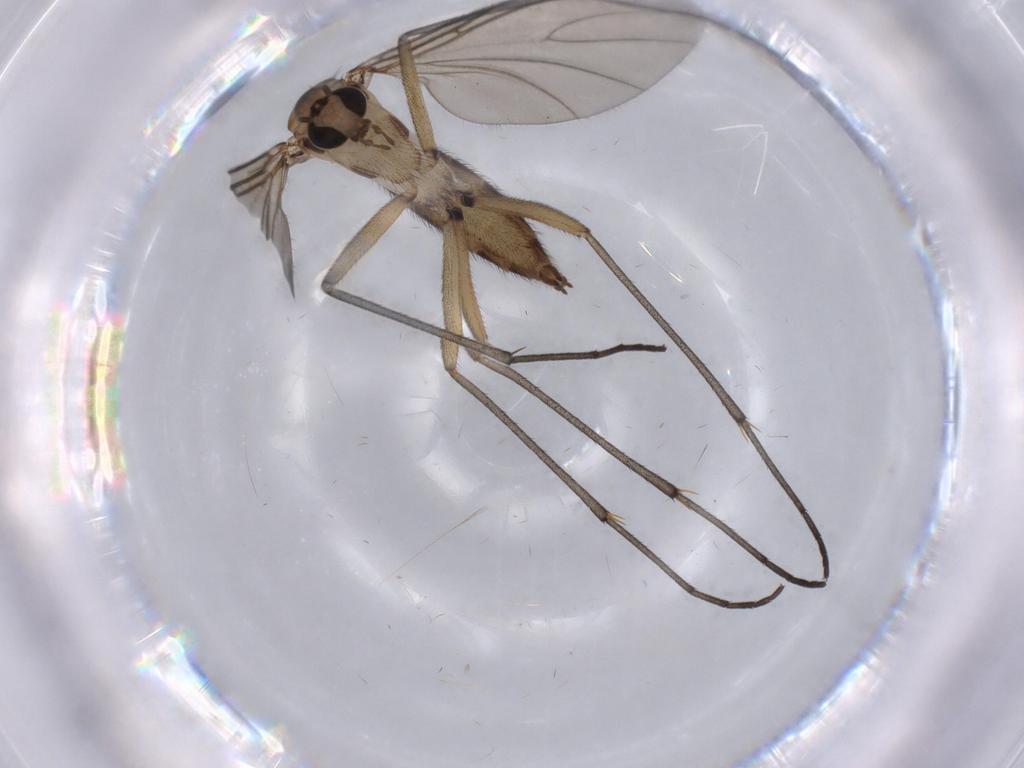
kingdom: Animalia
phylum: Arthropoda
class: Insecta
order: Diptera
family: Sciaridae
